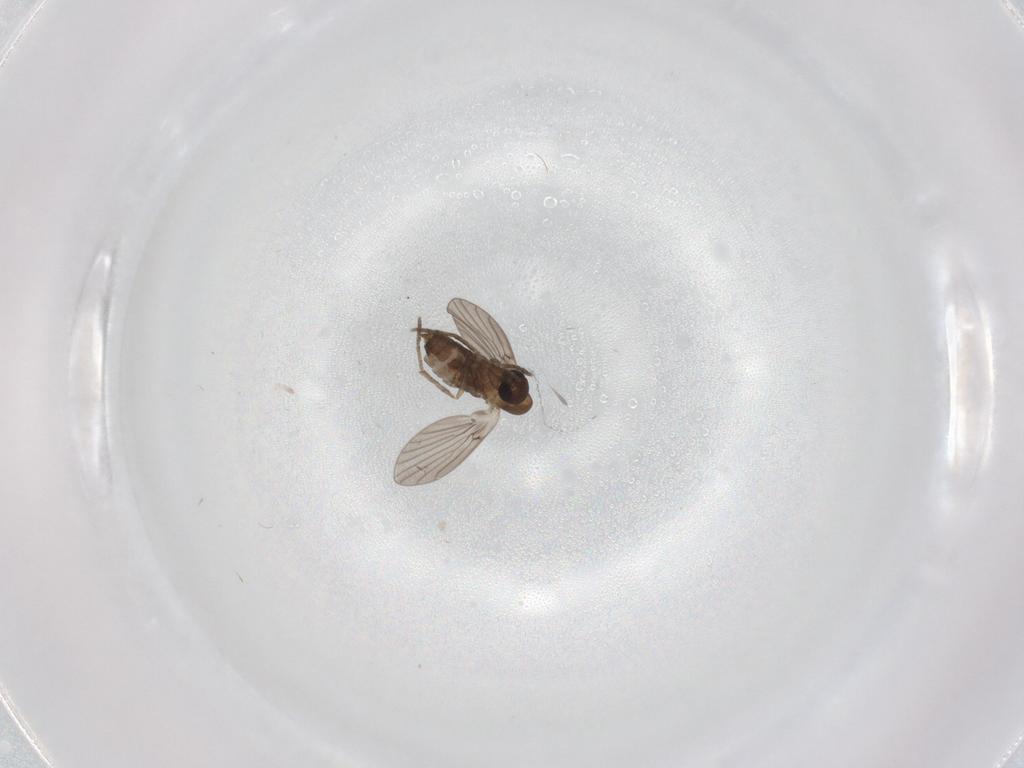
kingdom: Animalia
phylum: Arthropoda
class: Insecta
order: Diptera
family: Cecidomyiidae
